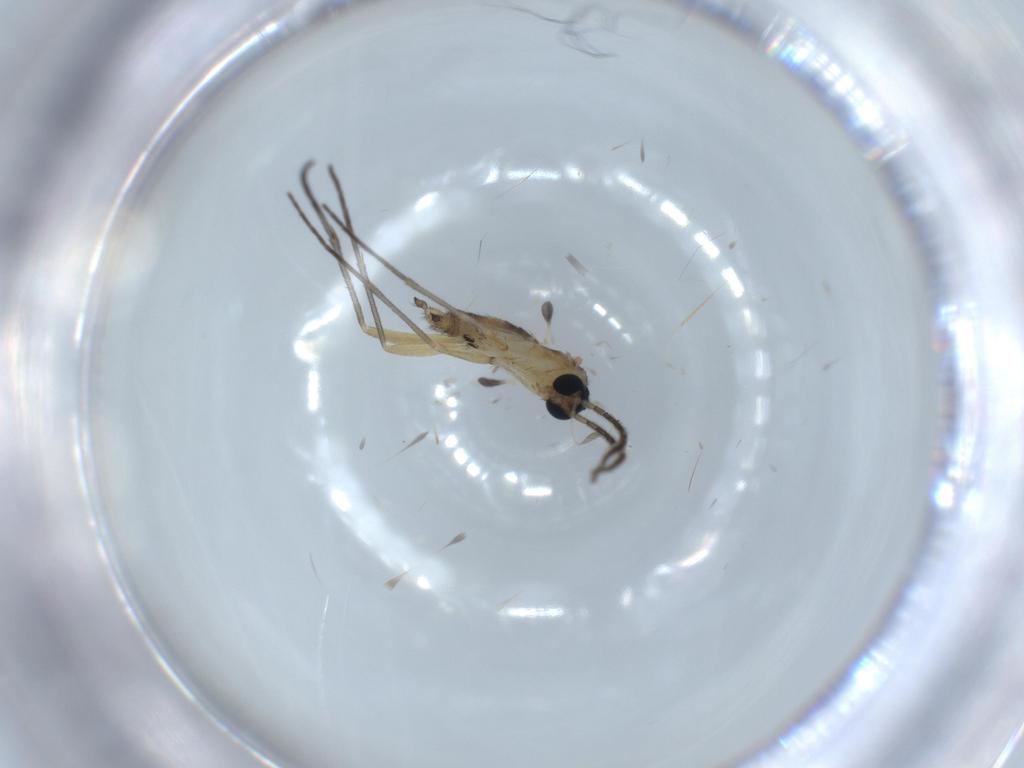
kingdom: Animalia
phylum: Arthropoda
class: Insecta
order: Diptera
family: Sciaridae
